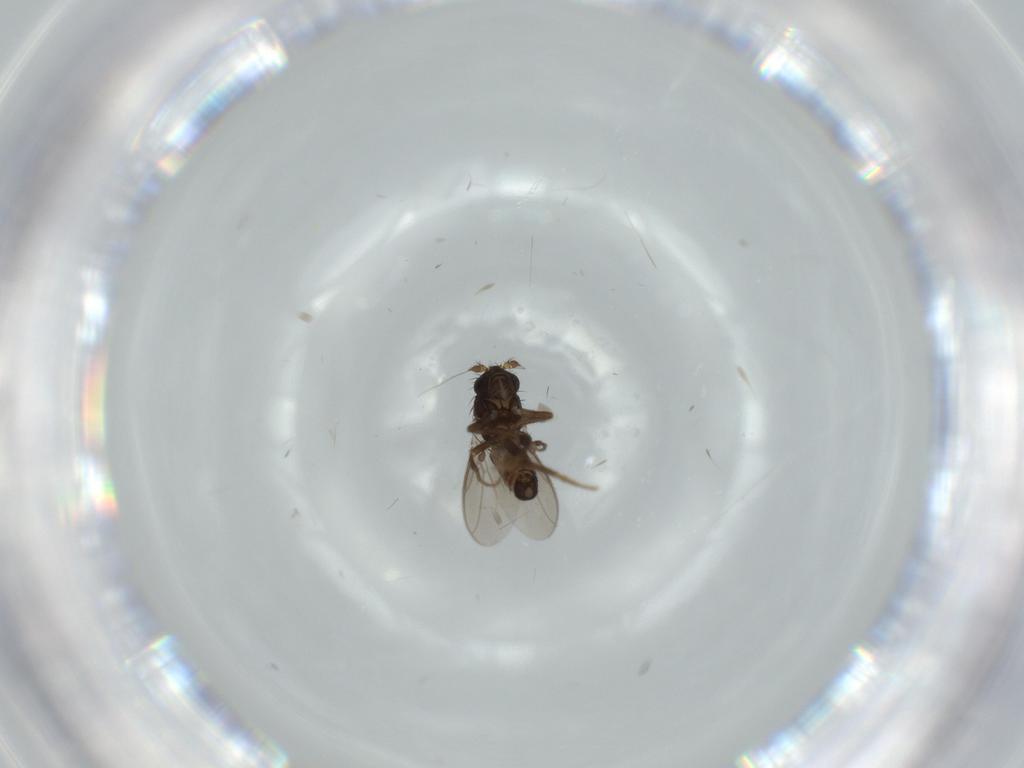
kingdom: Animalia
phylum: Arthropoda
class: Insecta
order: Diptera
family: Sphaeroceridae
